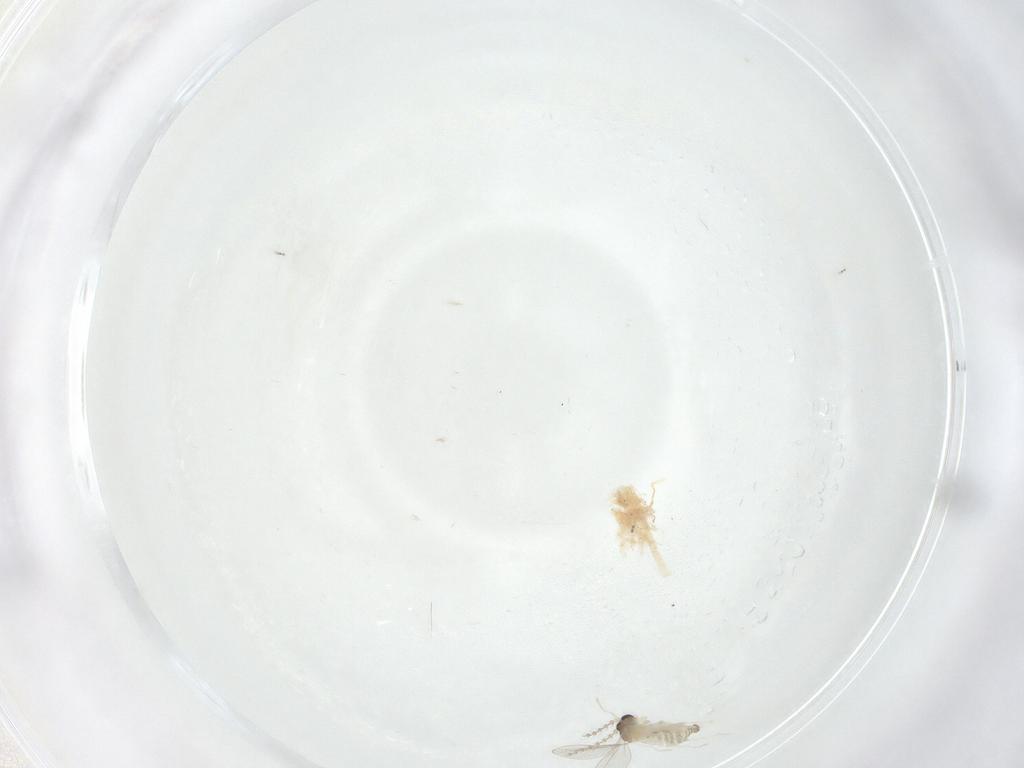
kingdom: Animalia
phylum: Arthropoda
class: Insecta
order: Diptera
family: Cecidomyiidae
